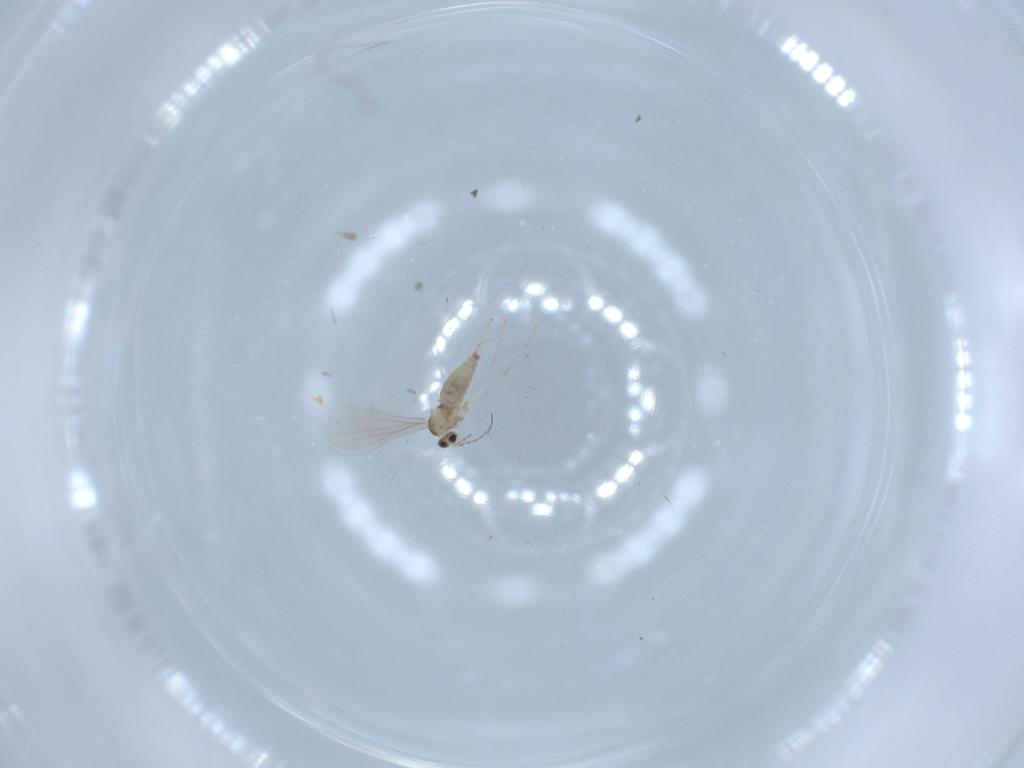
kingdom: Animalia
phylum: Arthropoda
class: Insecta
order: Diptera
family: Cecidomyiidae
